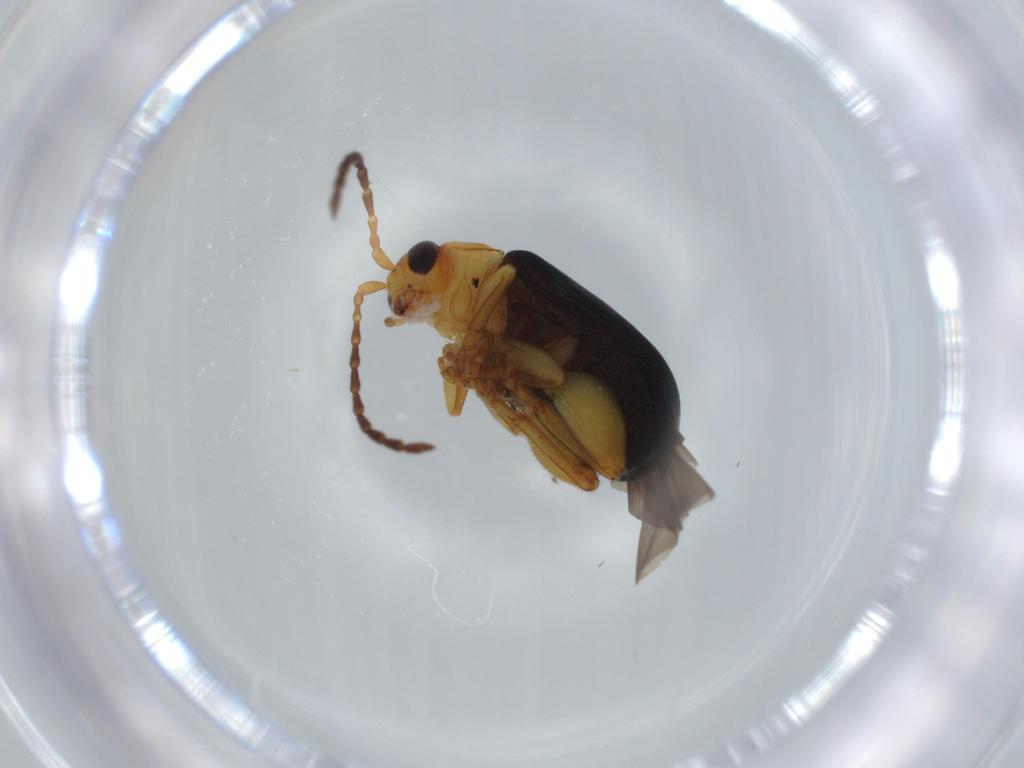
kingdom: Animalia
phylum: Arthropoda
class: Insecta
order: Coleoptera
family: Chrysomelidae
